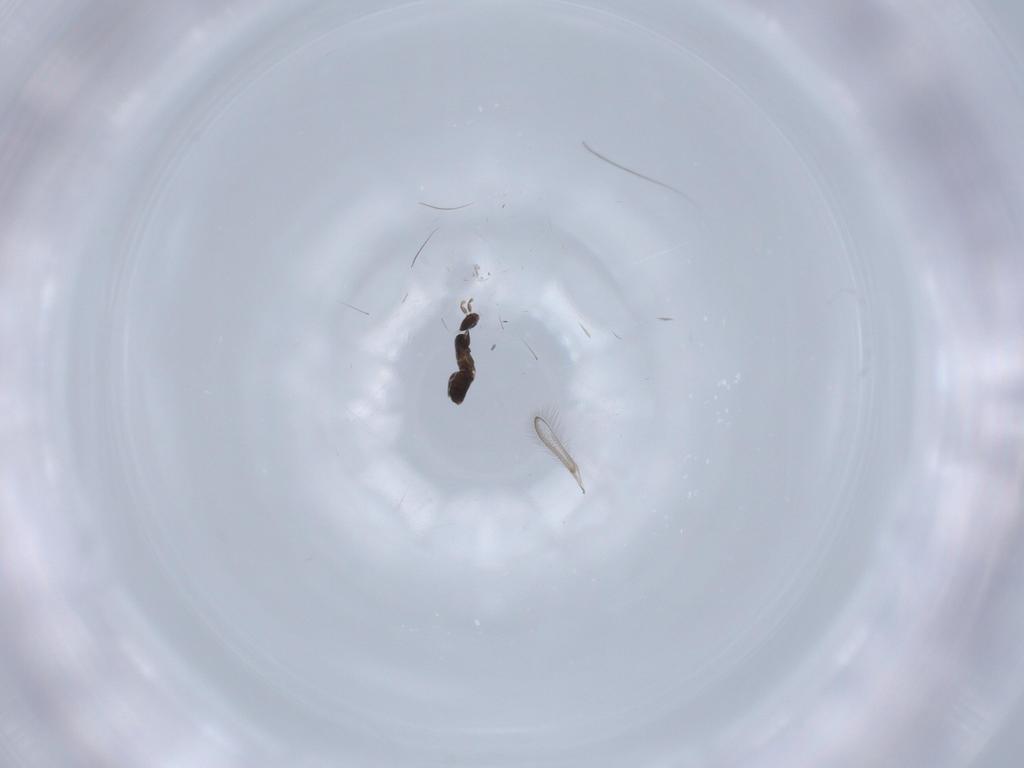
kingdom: Animalia
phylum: Arthropoda
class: Insecta
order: Hymenoptera
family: Mymaridae
